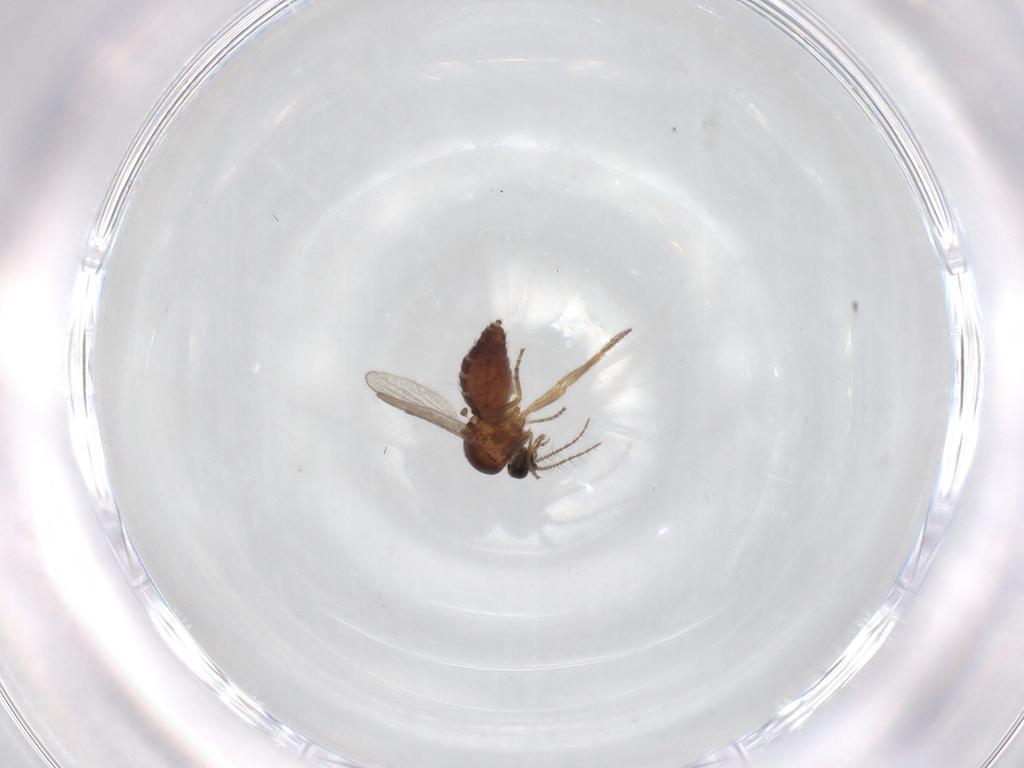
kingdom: Animalia
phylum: Arthropoda
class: Insecta
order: Diptera
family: Ceratopogonidae
